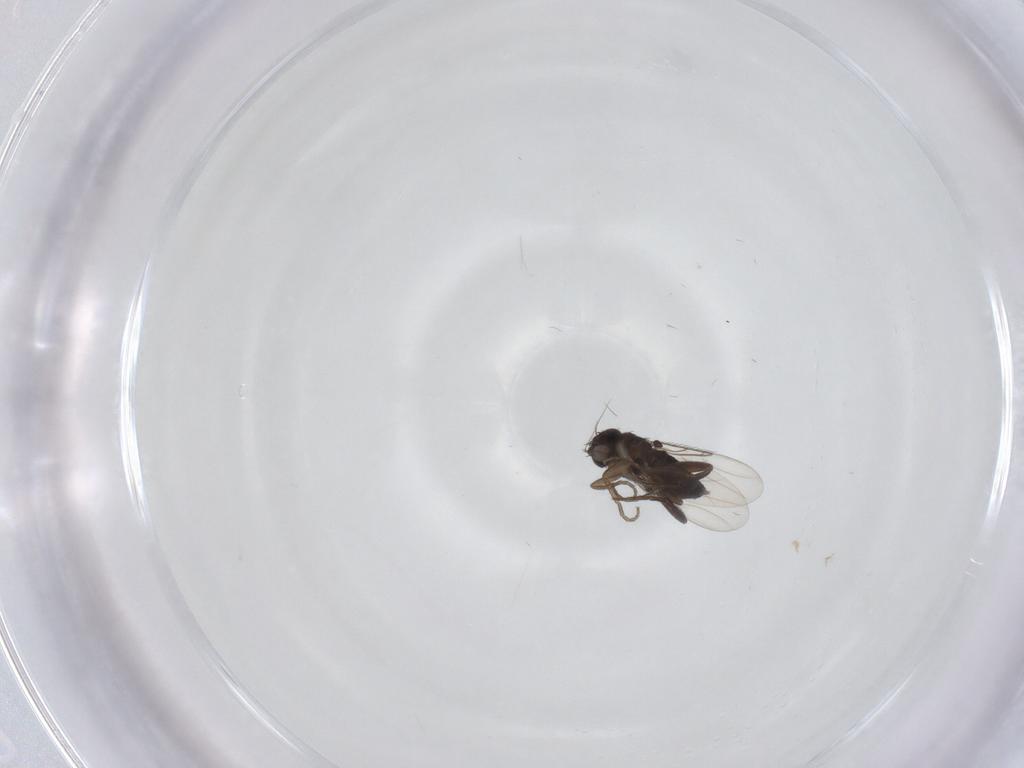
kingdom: Animalia
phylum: Arthropoda
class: Insecta
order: Diptera
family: Phoridae
